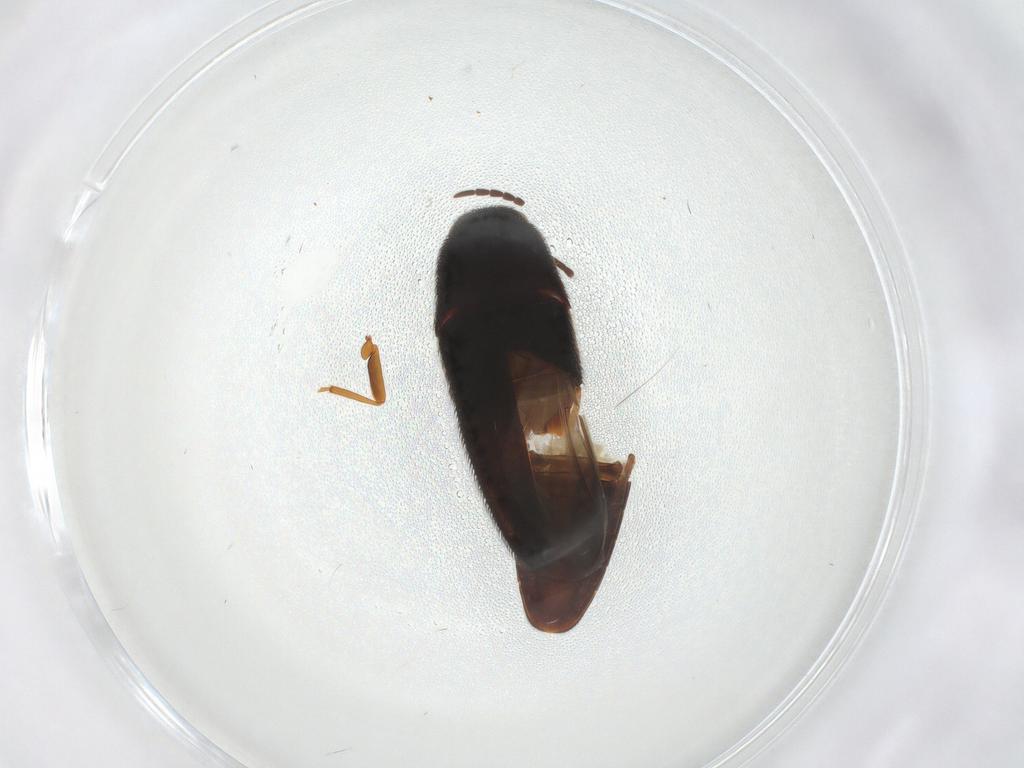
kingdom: Animalia
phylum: Arthropoda
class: Insecta
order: Coleoptera
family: Eucnemidae
